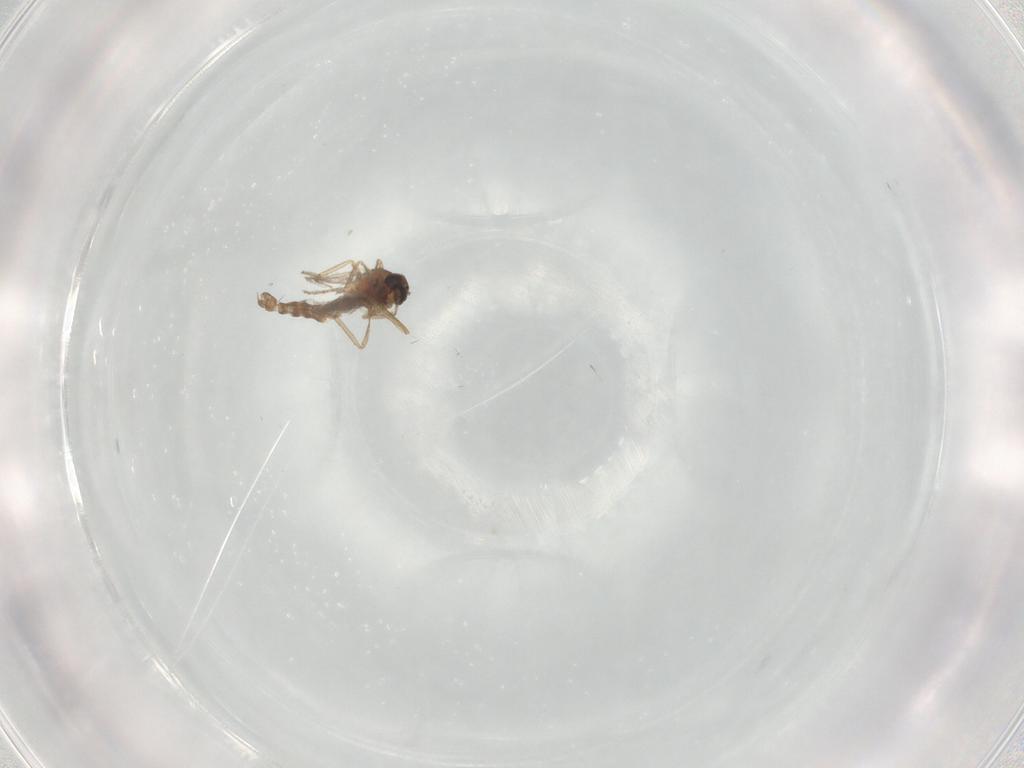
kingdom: Animalia
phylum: Arthropoda
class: Insecta
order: Diptera
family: Ceratopogonidae
